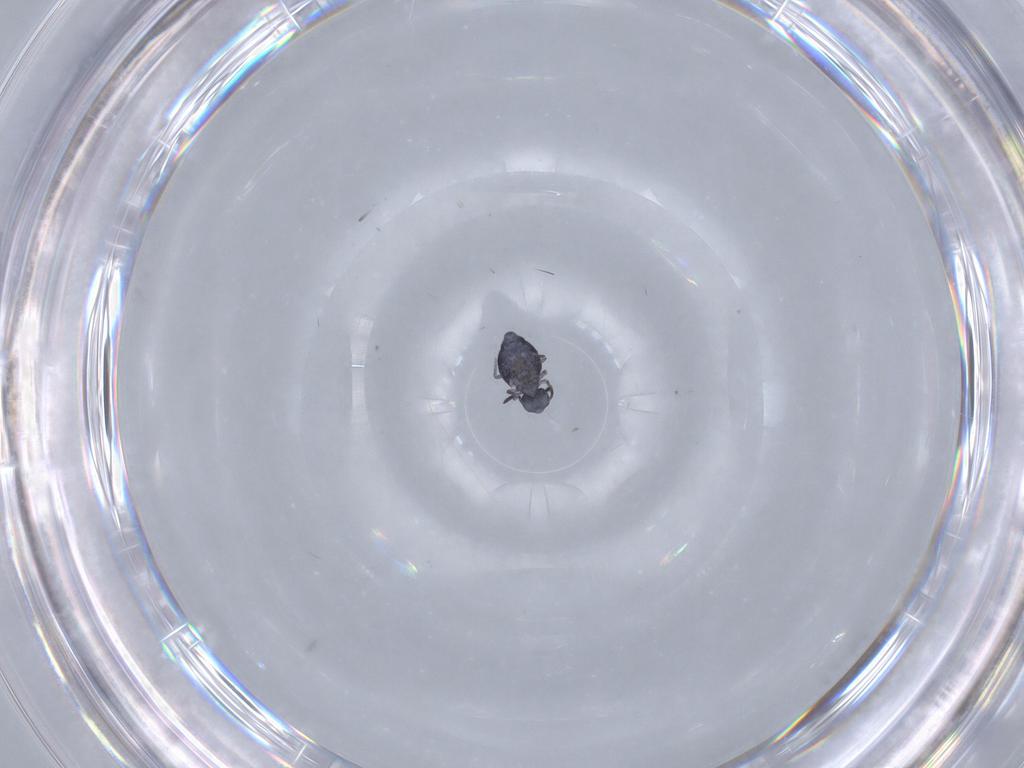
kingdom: Animalia
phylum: Arthropoda
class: Collembola
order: Symphypleona
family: Katiannidae
